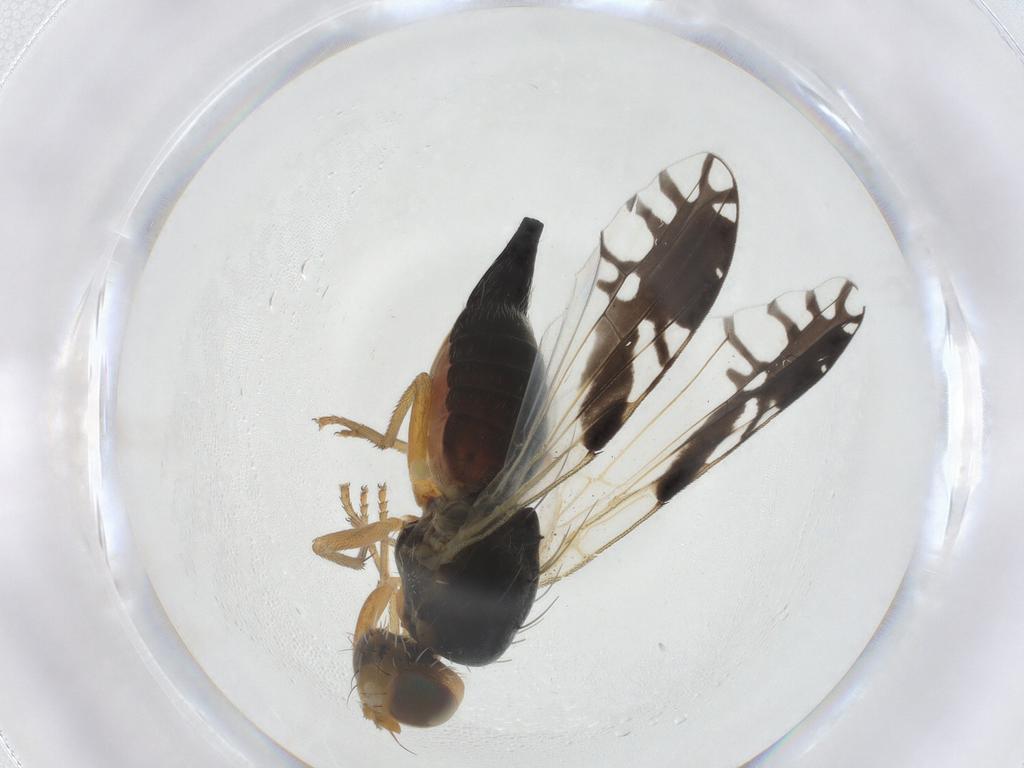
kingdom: Animalia
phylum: Arthropoda
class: Insecta
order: Diptera
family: Tephritidae
